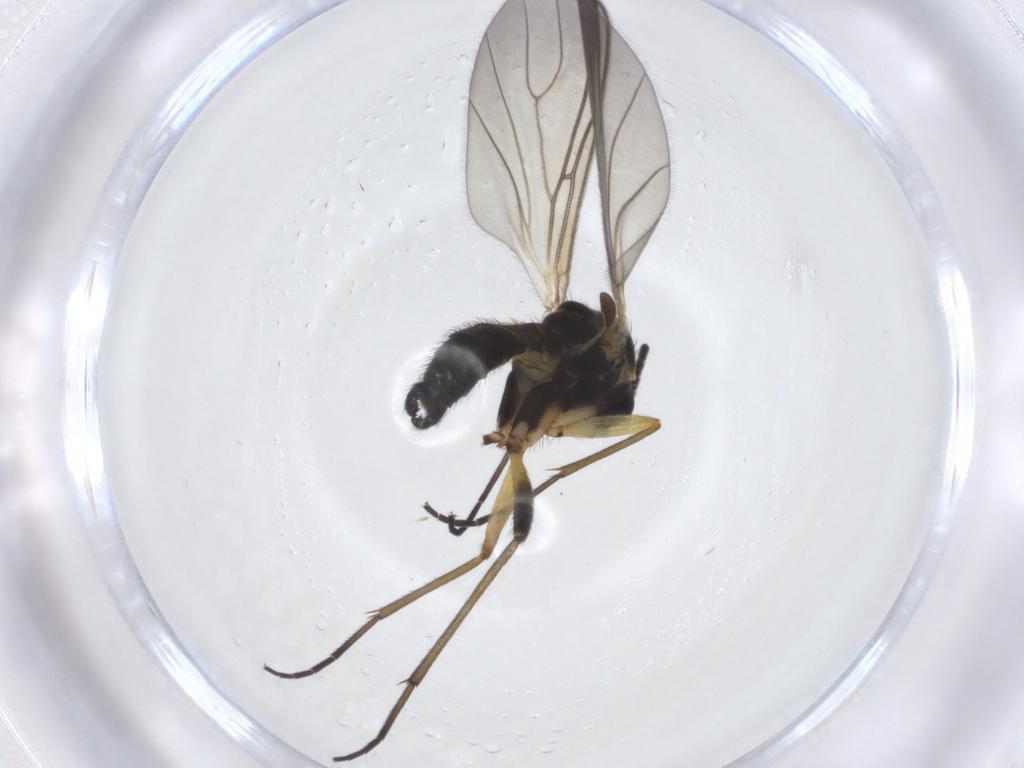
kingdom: Animalia
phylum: Arthropoda
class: Insecta
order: Diptera
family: Sciaridae
